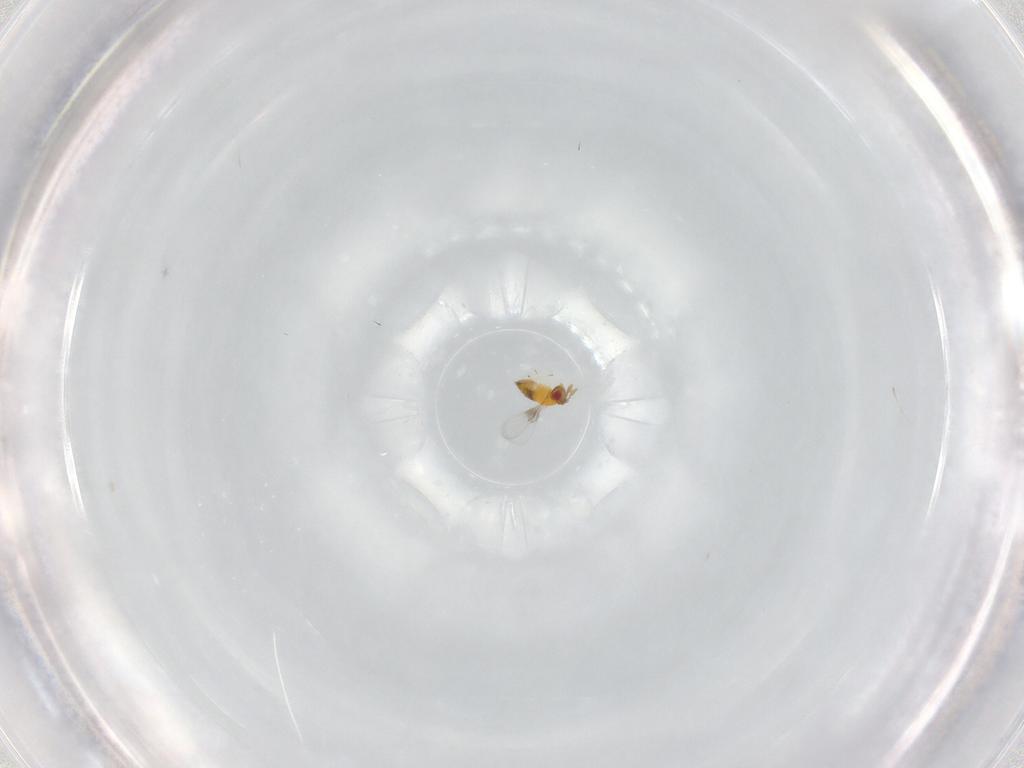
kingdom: Animalia
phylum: Arthropoda
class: Insecta
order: Hymenoptera
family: Trichogrammatidae
